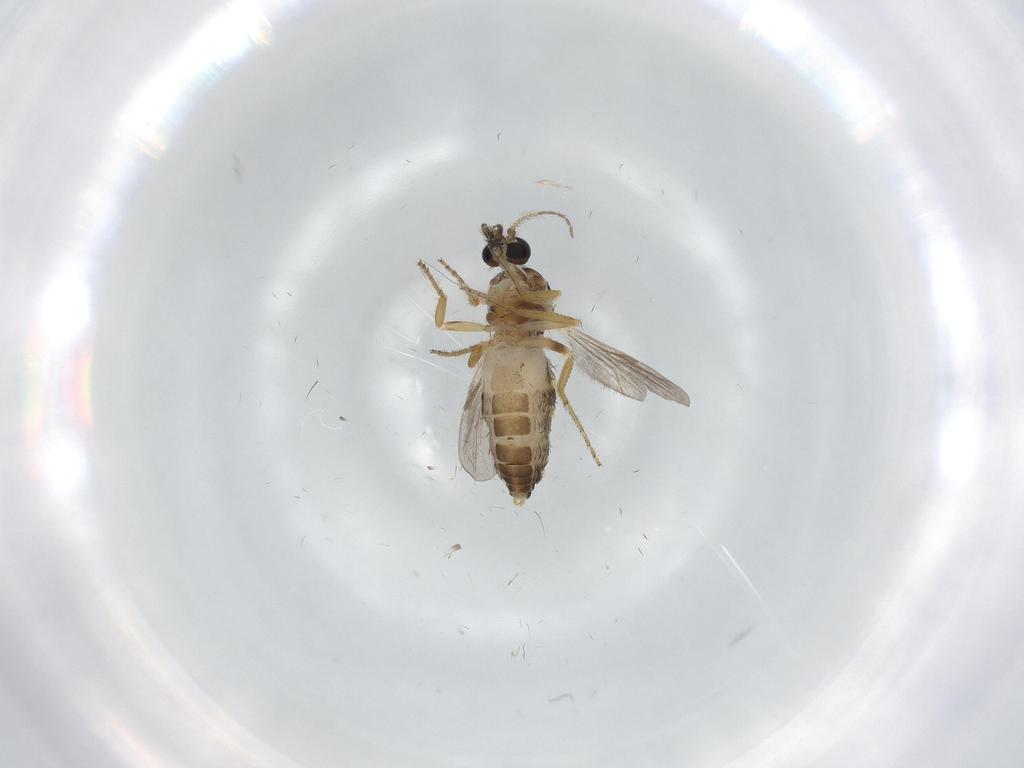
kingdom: Animalia
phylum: Arthropoda
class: Insecta
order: Diptera
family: Ceratopogonidae
